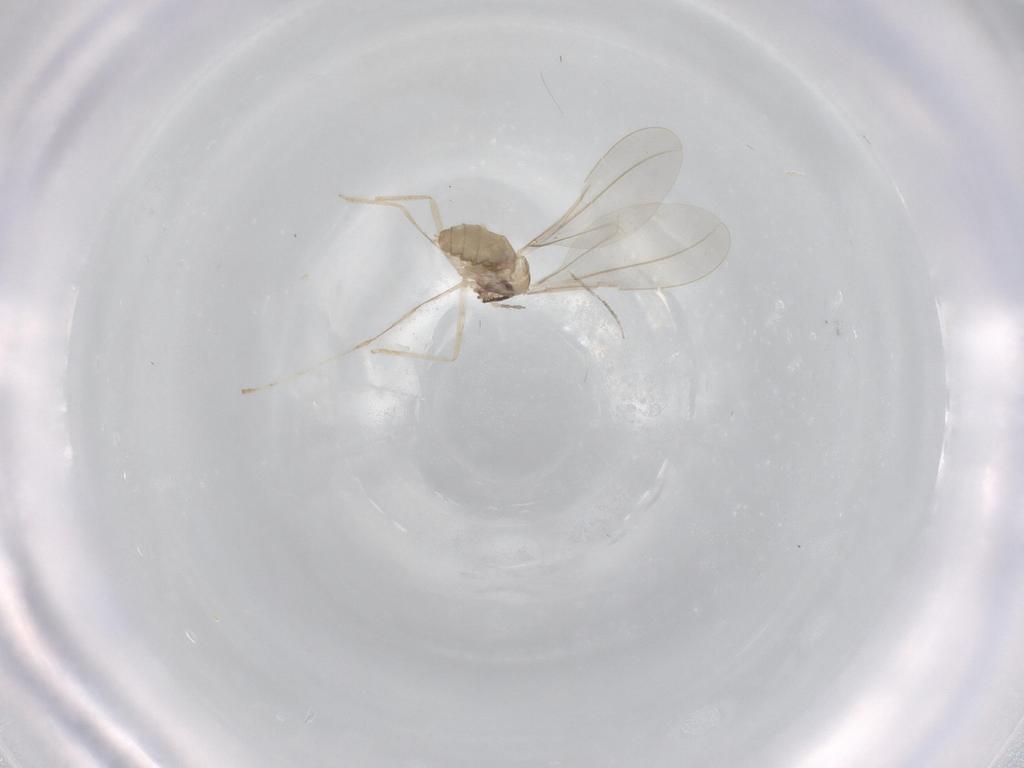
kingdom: Animalia
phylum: Arthropoda
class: Insecta
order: Diptera
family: Cecidomyiidae
